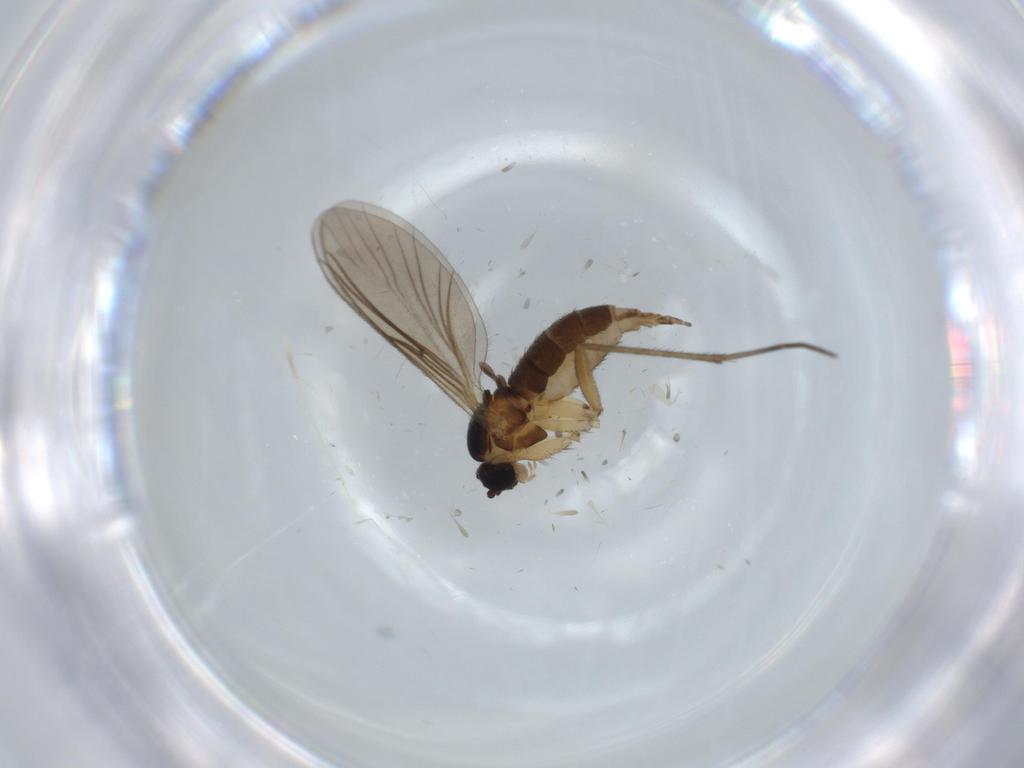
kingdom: Animalia
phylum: Arthropoda
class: Insecta
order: Diptera
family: Sciaridae
